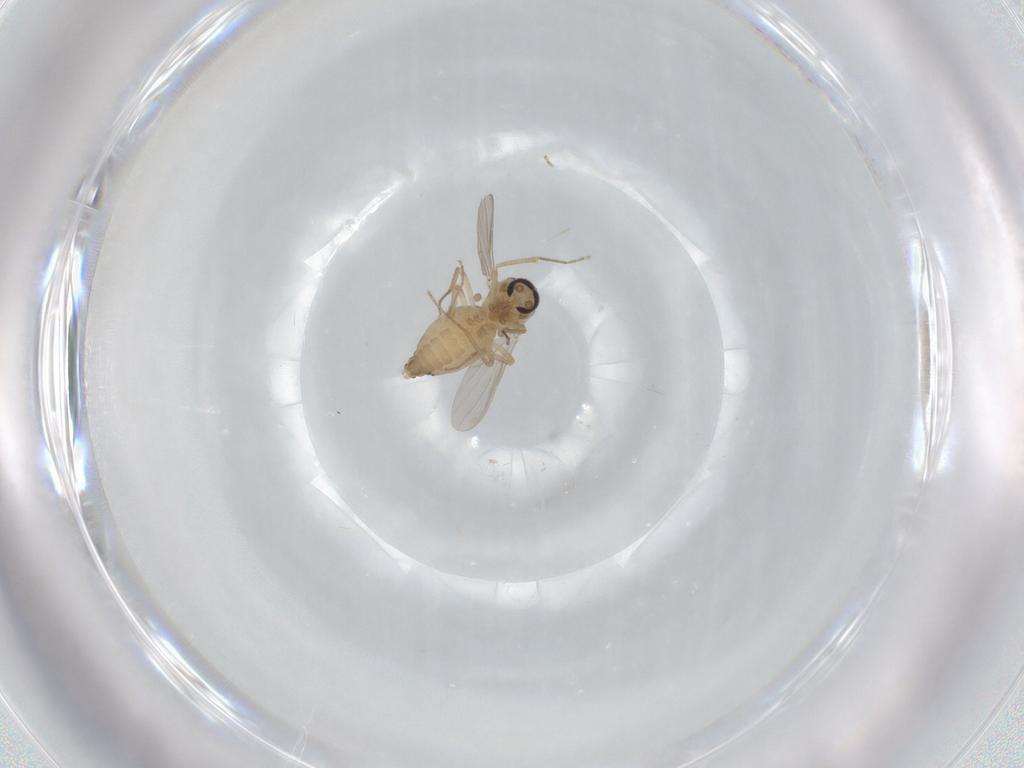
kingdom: Animalia
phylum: Arthropoda
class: Insecta
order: Diptera
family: Ceratopogonidae
